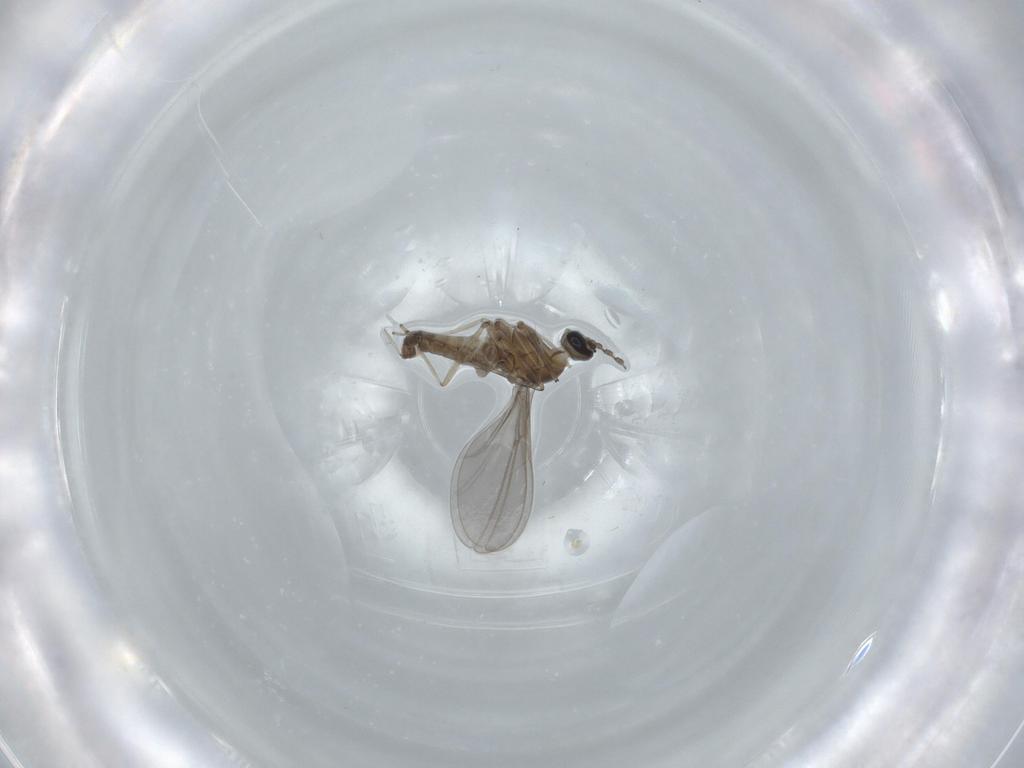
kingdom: Animalia
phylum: Arthropoda
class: Insecta
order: Diptera
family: Cecidomyiidae
